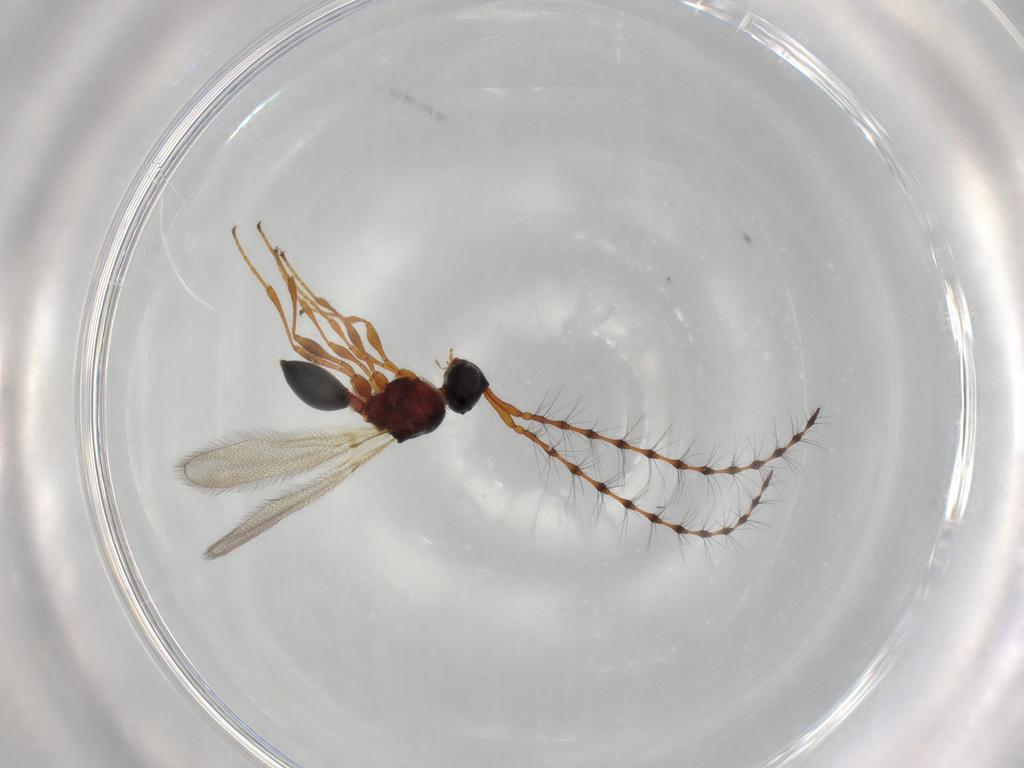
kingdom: Animalia
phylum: Arthropoda
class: Insecta
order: Hymenoptera
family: Diapriidae
